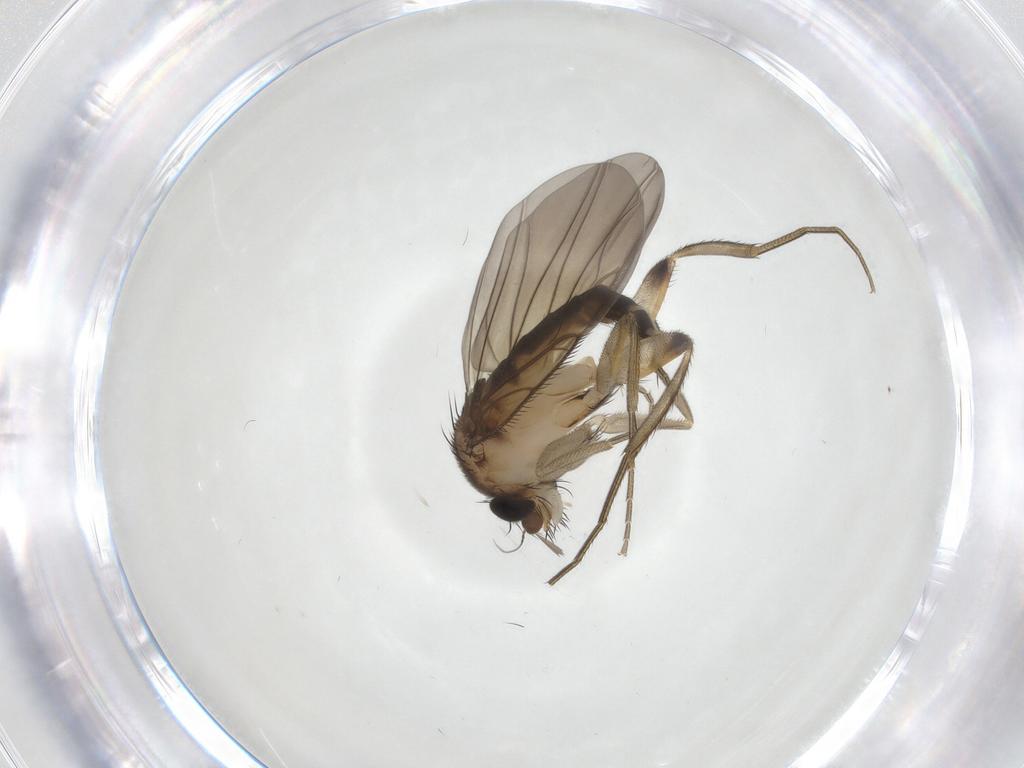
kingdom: Animalia
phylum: Arthropoda
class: Insecta
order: Diptera
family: Phoridae
